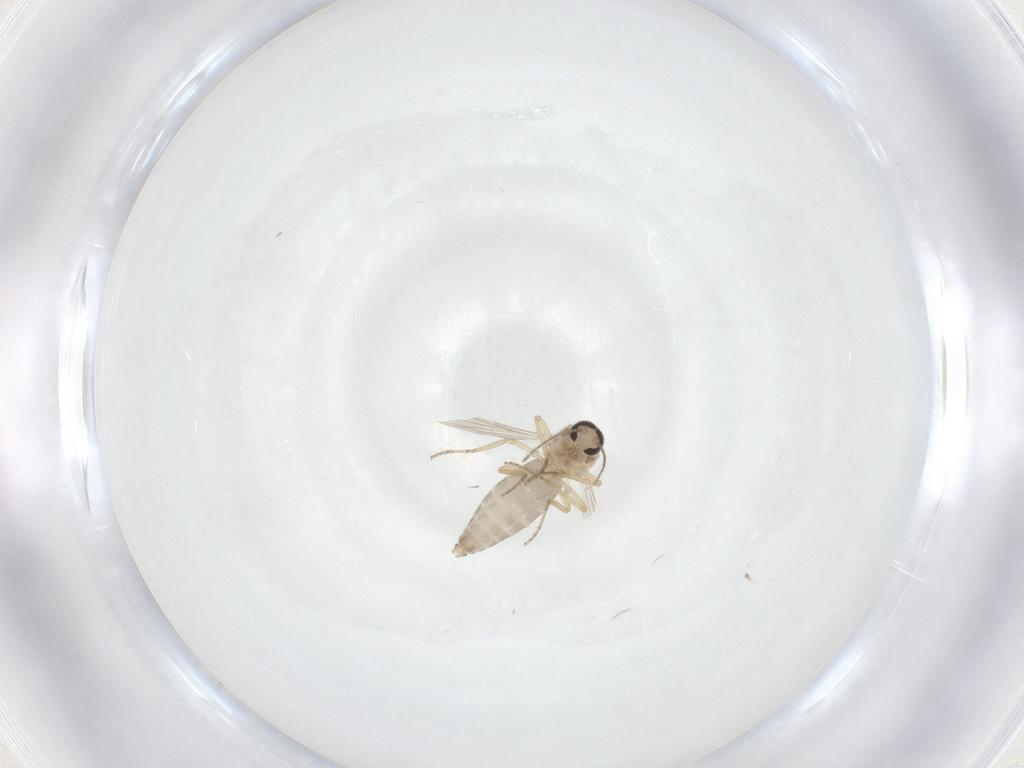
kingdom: Animalia
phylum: Arthropoda
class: Insecta
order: Diptera
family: Ceratopogonidae
